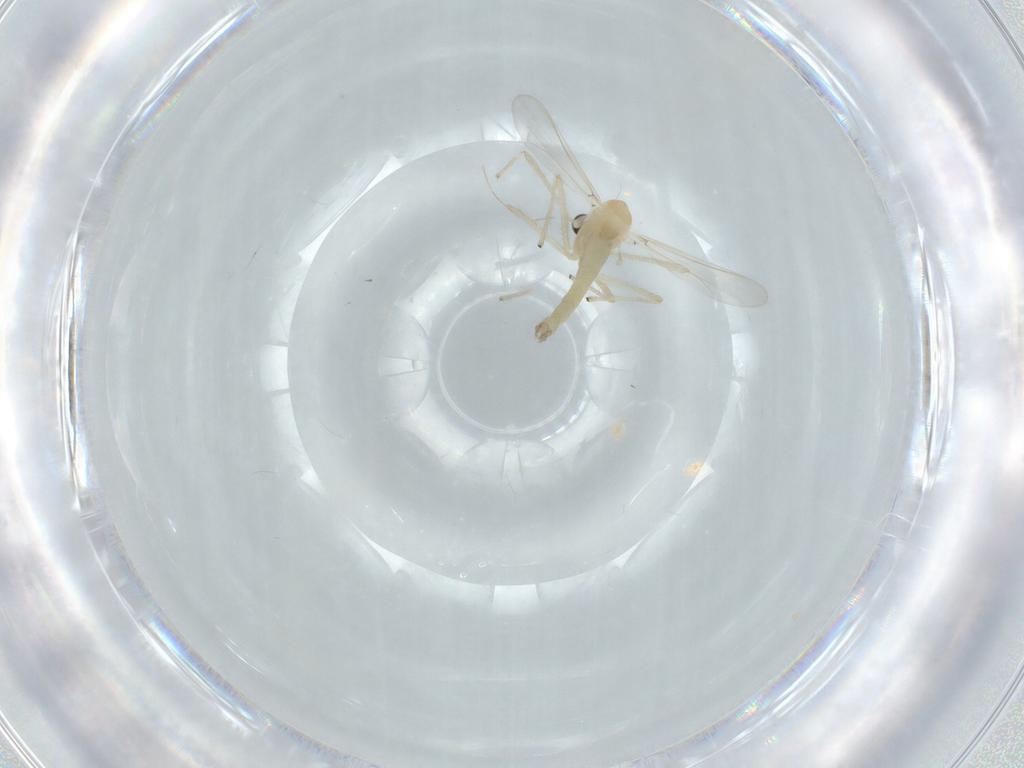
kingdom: Animalia
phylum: Arthropoda
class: Insecta
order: Diptera
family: Chironomidae
